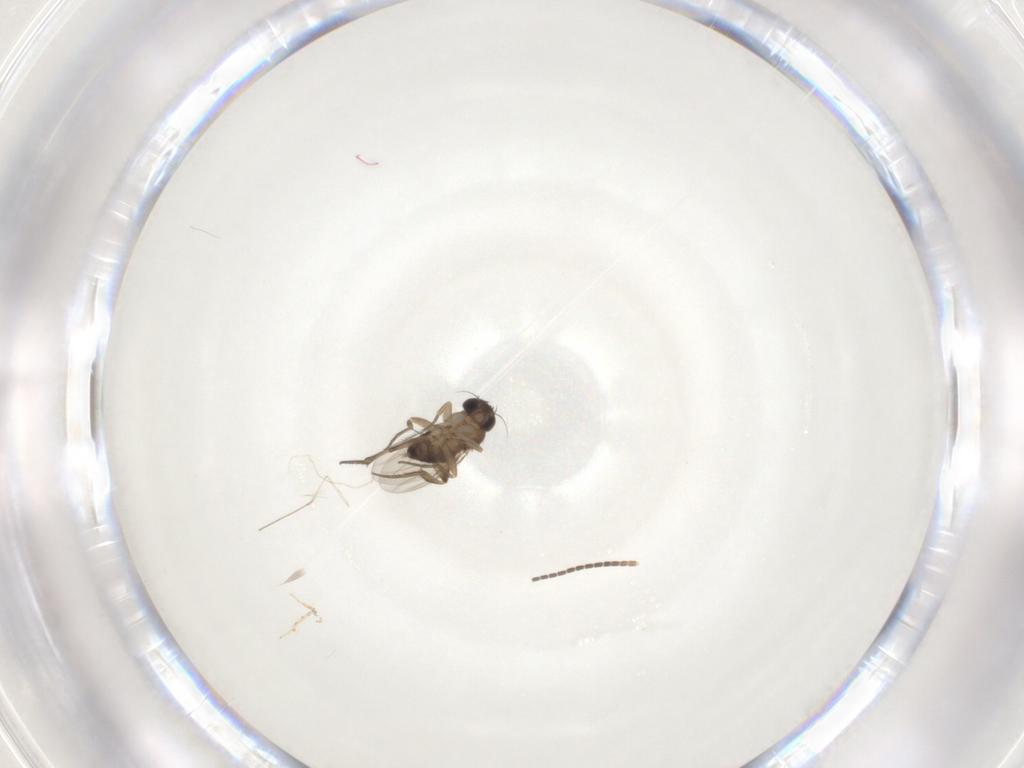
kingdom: Animalia
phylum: Arthropoda
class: Insecta
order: Diptera
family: Phoridae
